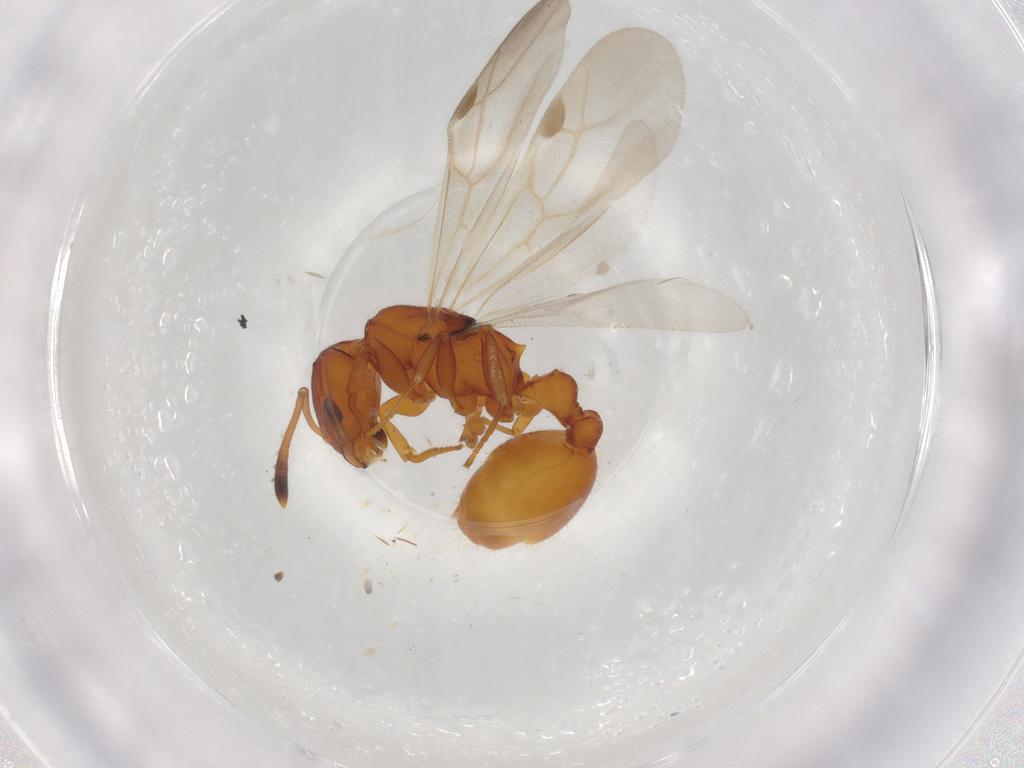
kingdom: Animalia
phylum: Arthropoda
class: Insecta
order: Hymenoptera
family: Formicidae
